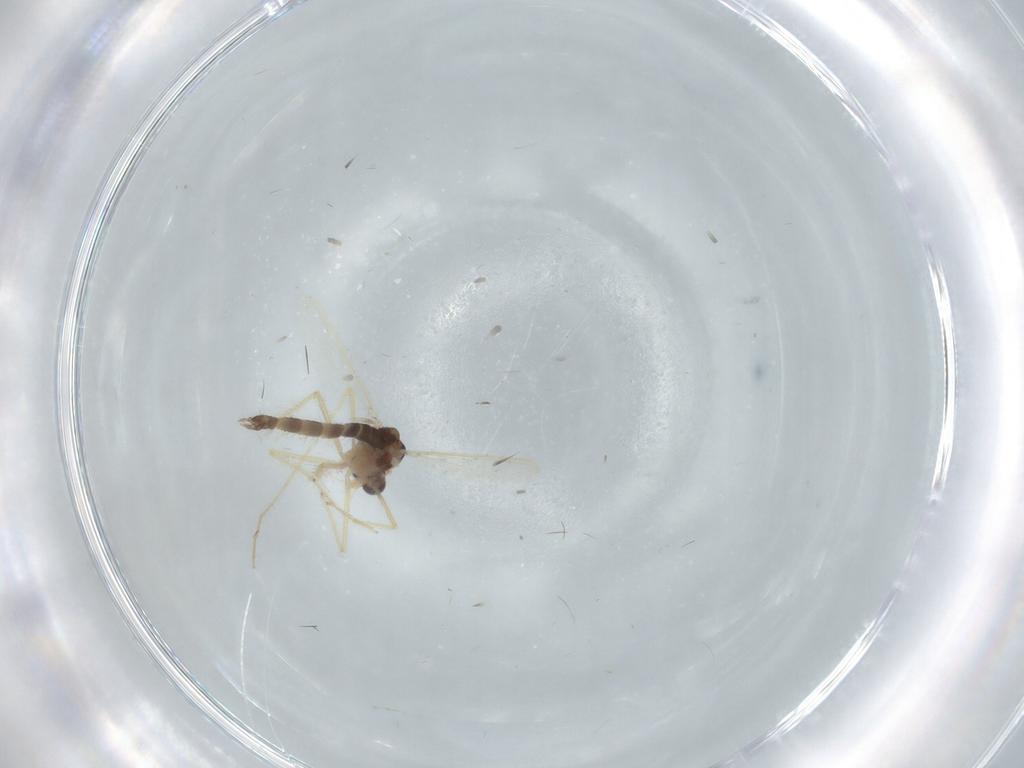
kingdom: Animalia
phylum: Arthropoda
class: Insecta
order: Diptera
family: Chironomidae
